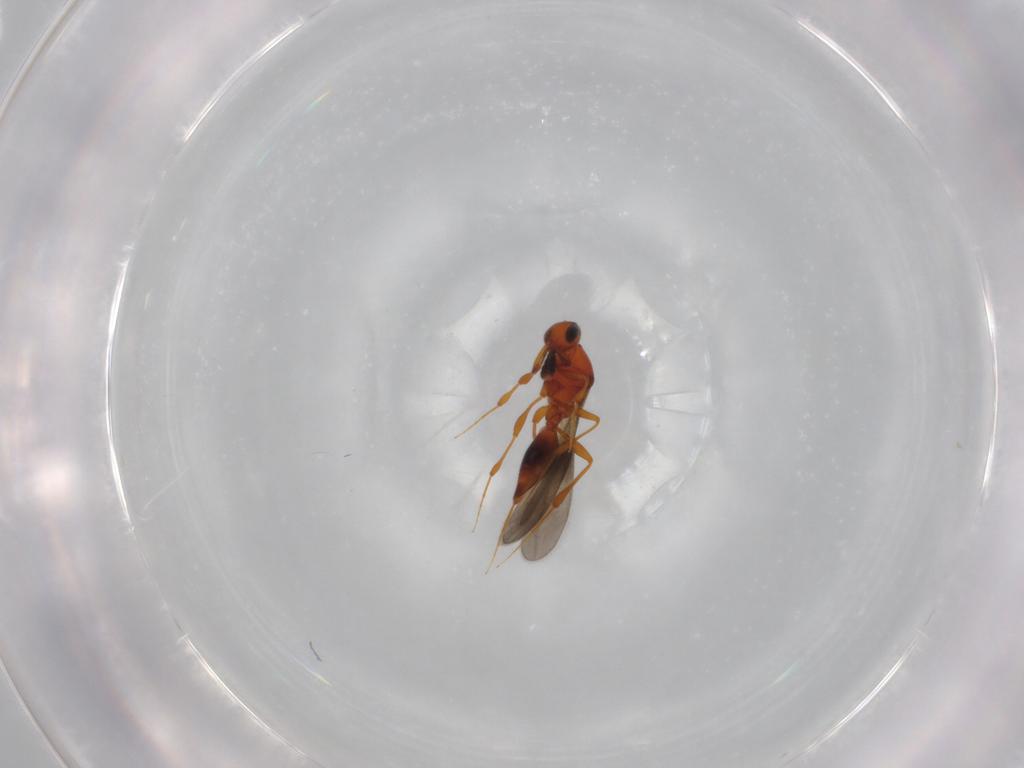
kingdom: Animalia
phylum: Arthropoda
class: Insecta
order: Hymenoptera
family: Platygastridae
